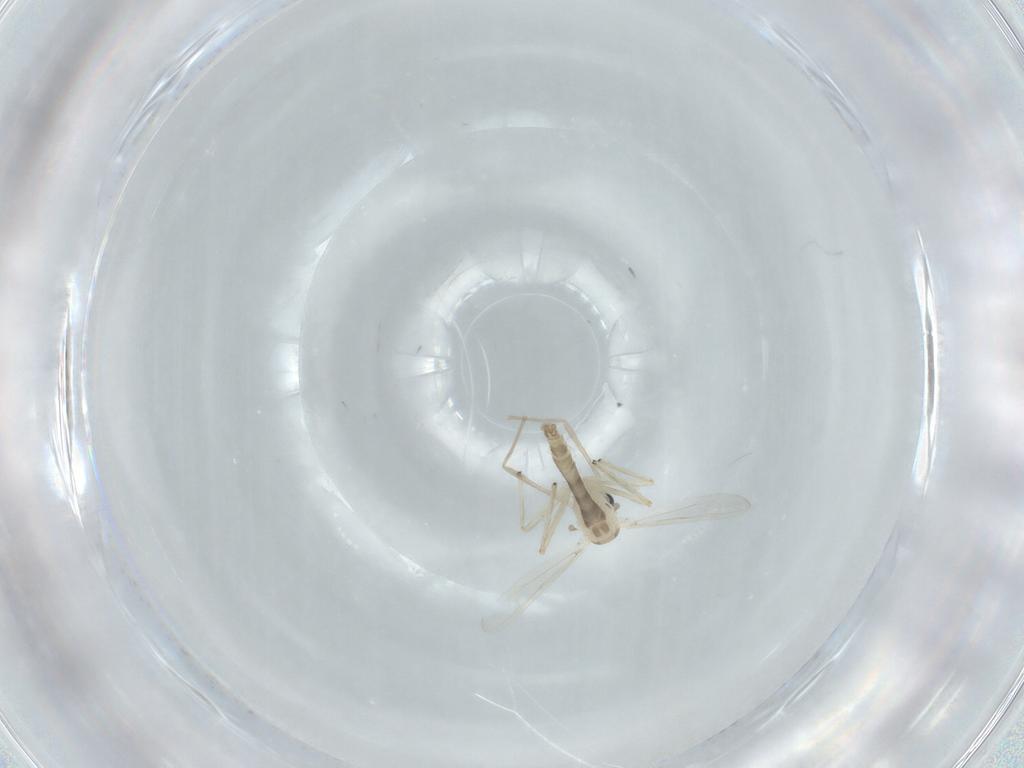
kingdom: Animalia
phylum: Arthropoda
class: Insecta
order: Diptera
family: Chironomidae
